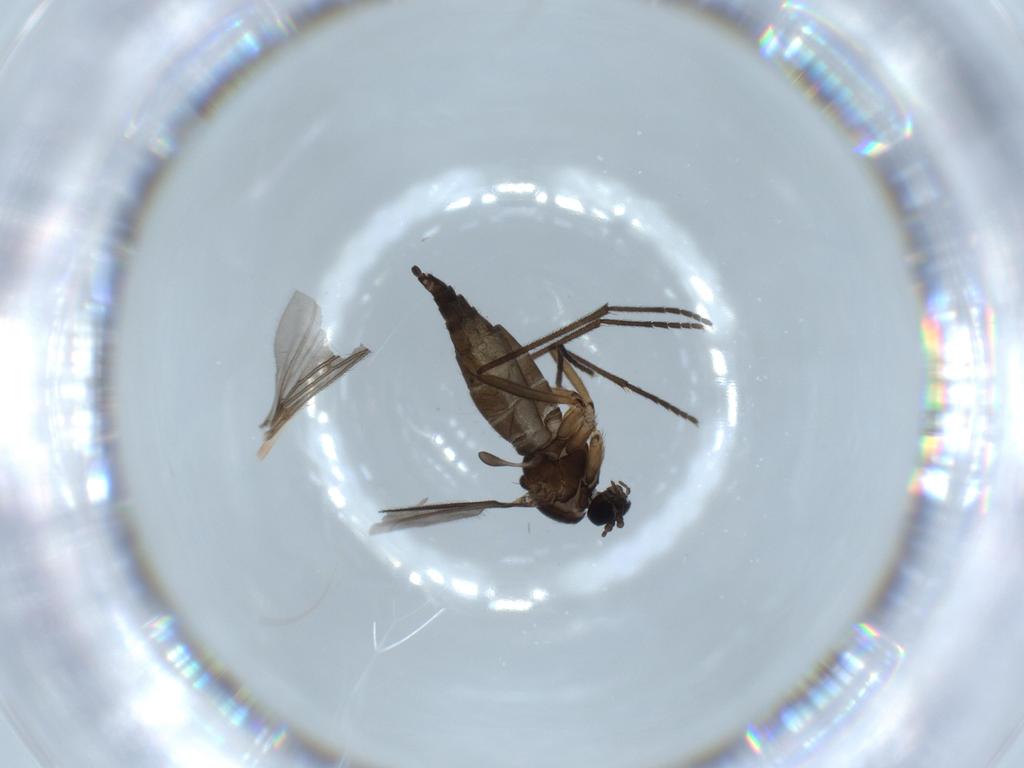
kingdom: Animalia
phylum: Arthropoda
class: Insecta
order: Diptera
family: Sciaridae
